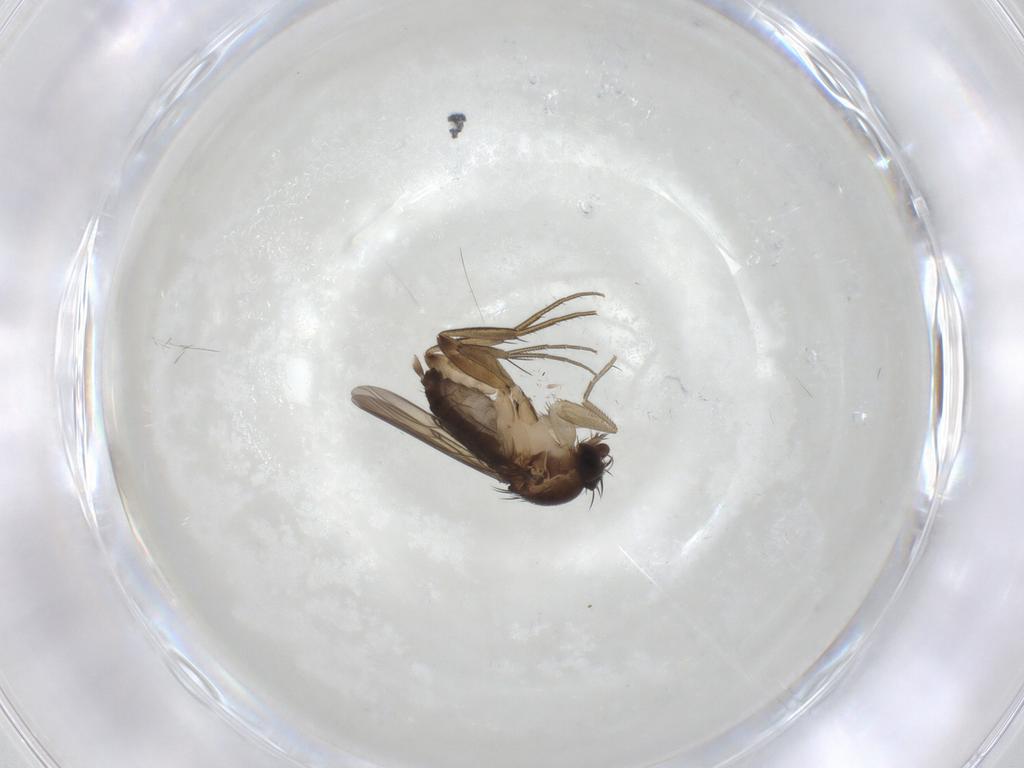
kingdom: Animalia
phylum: Arthropoda
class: Insecta
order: Diptera
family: Phoridae
